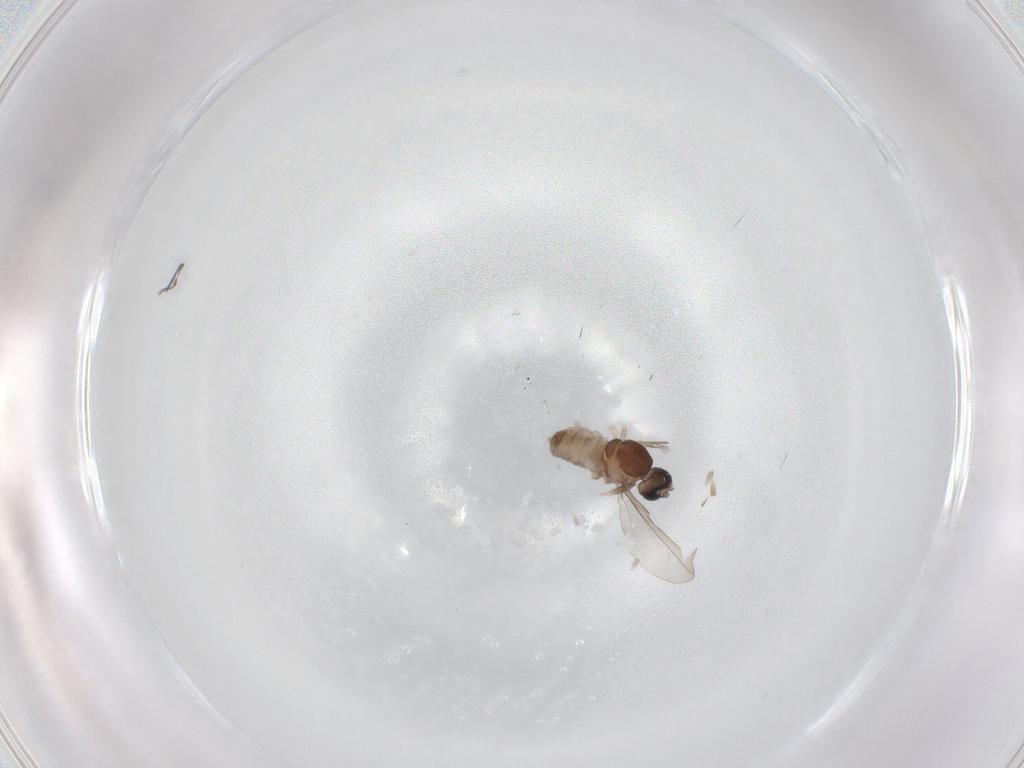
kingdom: Animalia
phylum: Arthropoda
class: Insecta
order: Diptera
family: Cecidomyiidae
